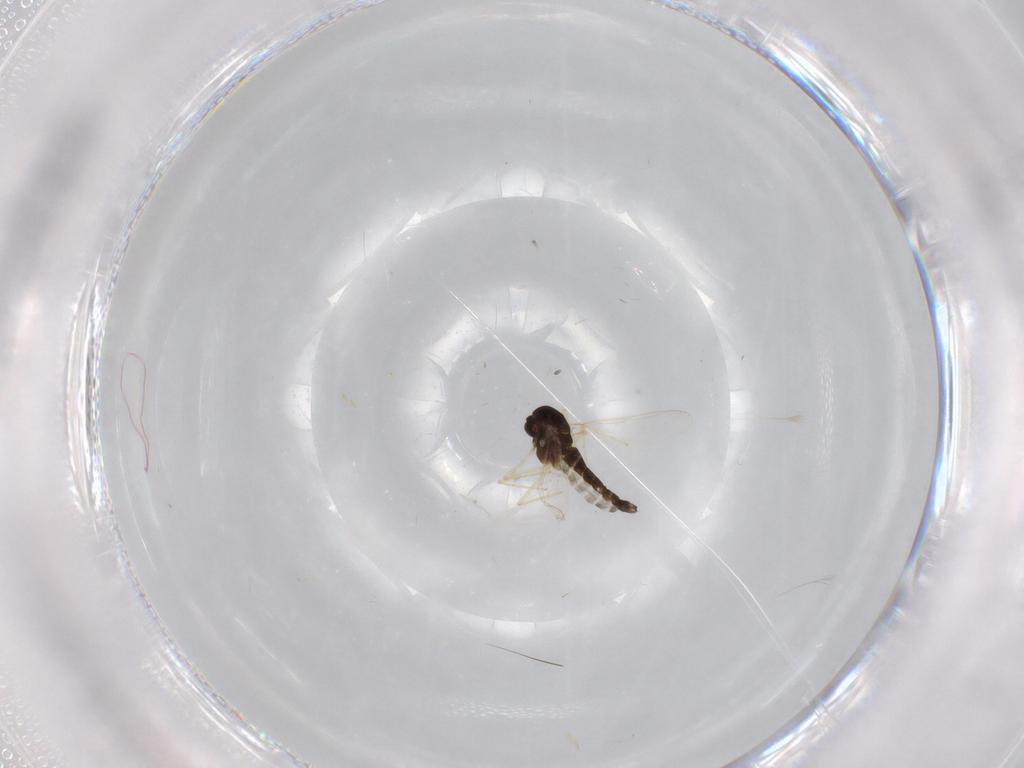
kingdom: Animalia
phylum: Arthropoda
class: Insecta
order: Diptera
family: Chironomidae
